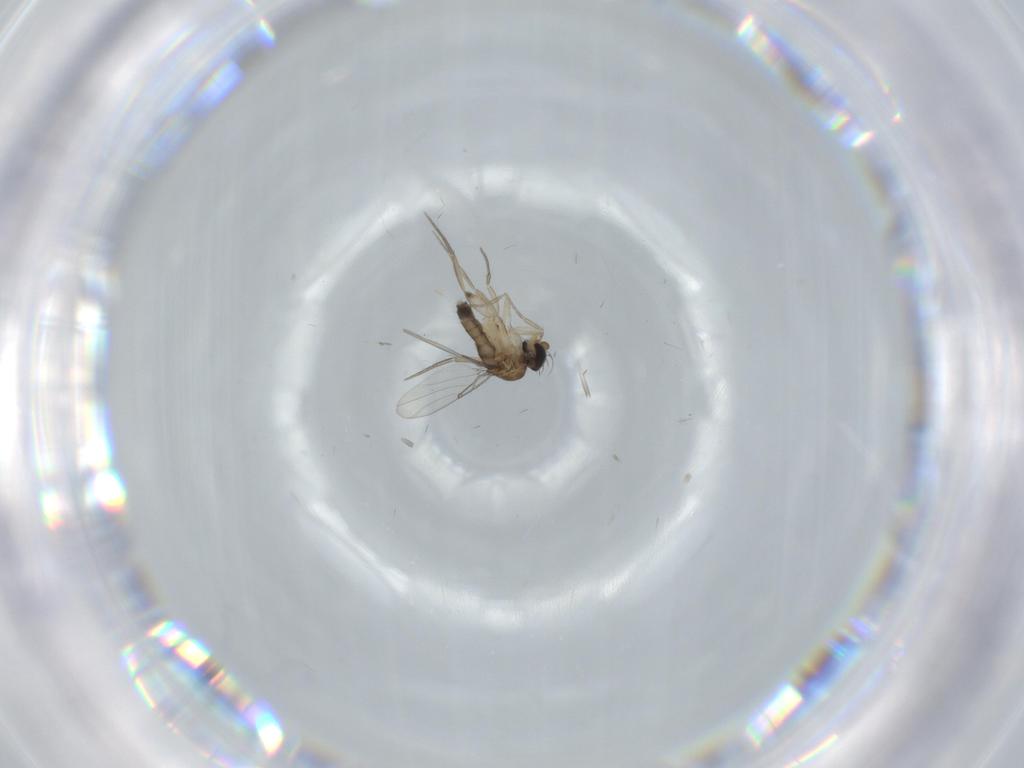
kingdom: Animalia
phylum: Arthropoda
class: Insecta
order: Diptera
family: Phoridae
